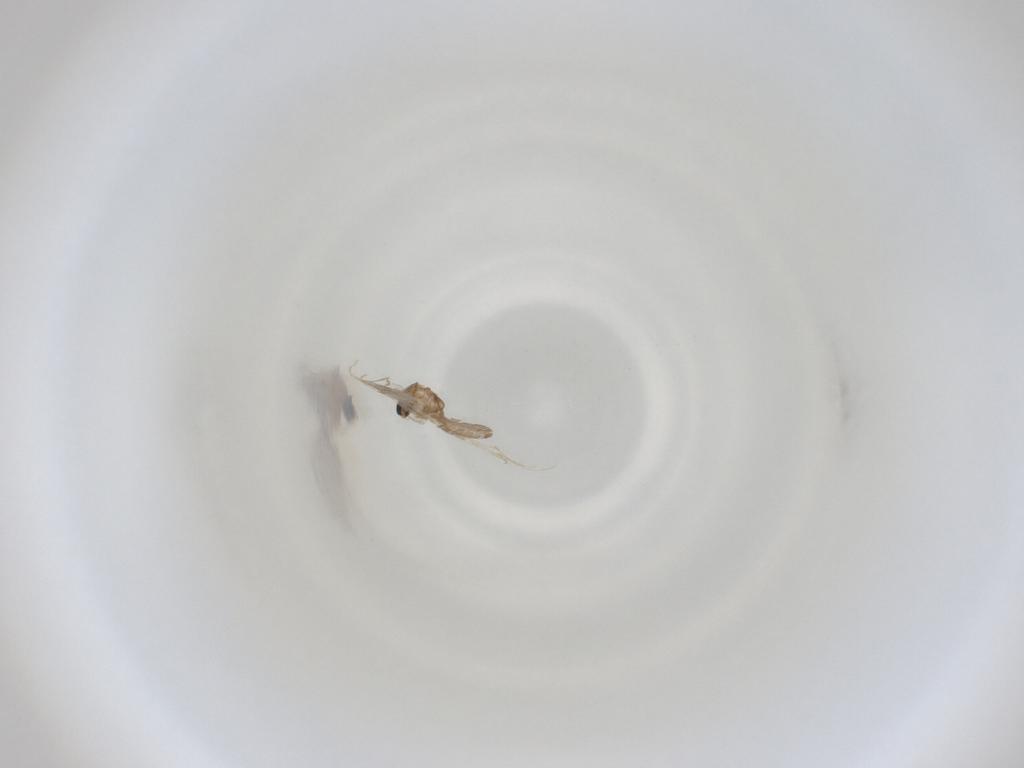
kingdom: Animalia
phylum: Arthropoda
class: Insecta
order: Diptera
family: Cecidomyiidae
